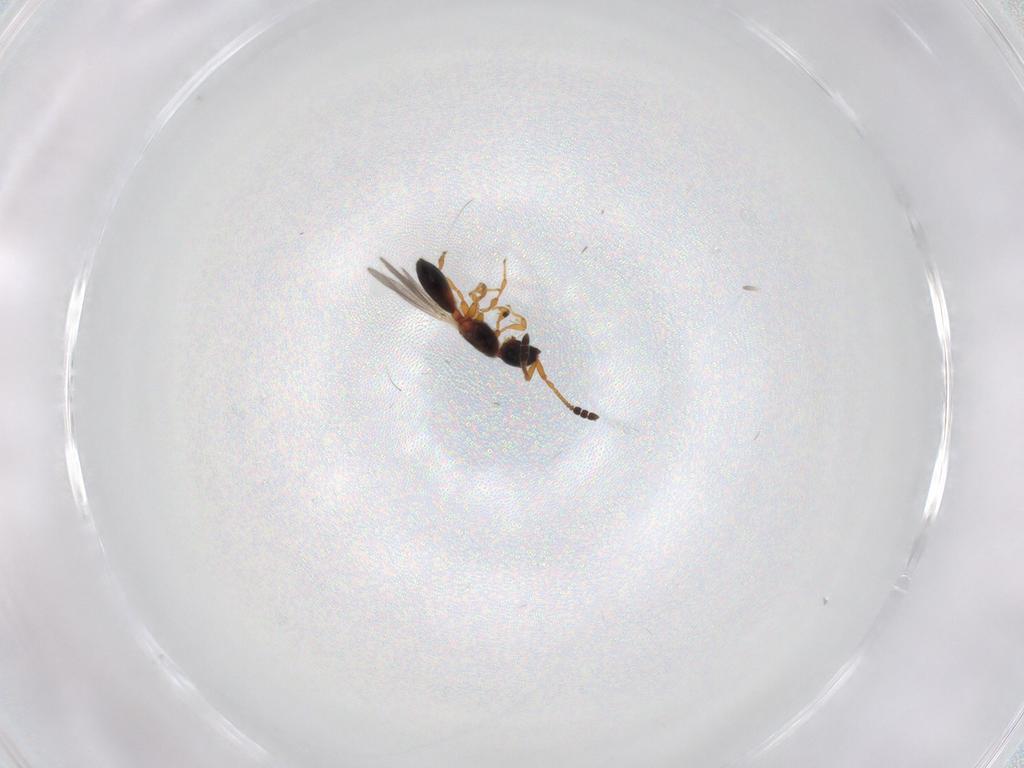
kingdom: Animalia
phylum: Arthropoda
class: Insecta
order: Hymenoptera
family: Diapriidae
